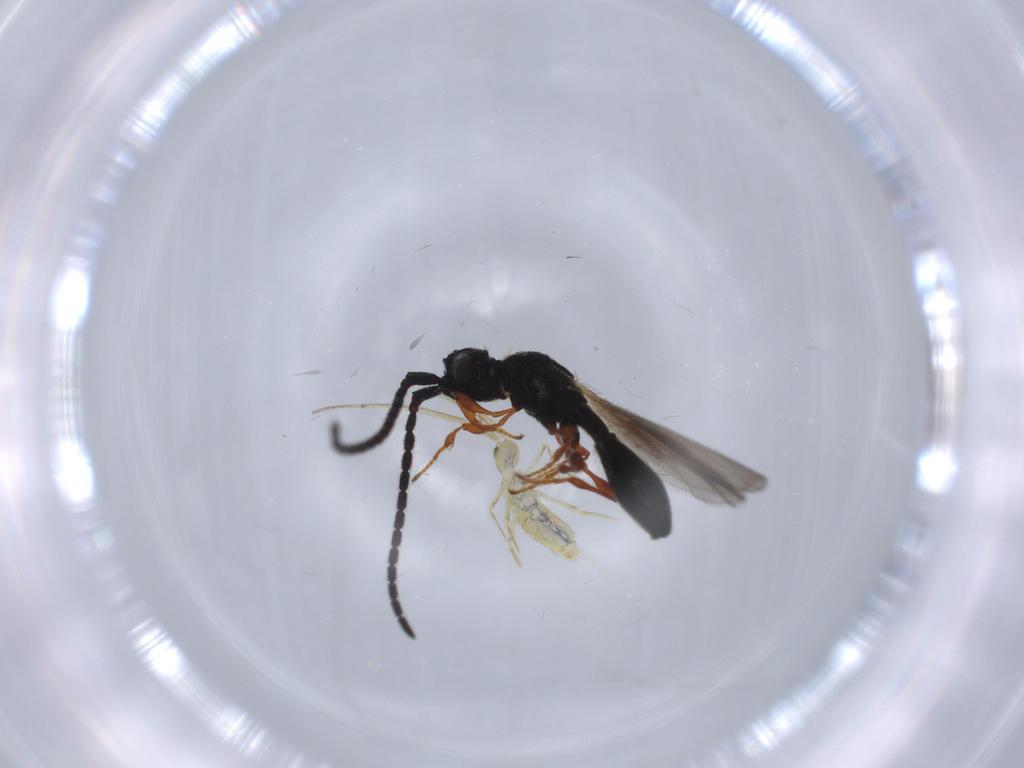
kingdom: Animalia
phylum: Arthropoda
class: Insecta
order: Hymenoptera
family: Diapriidae
